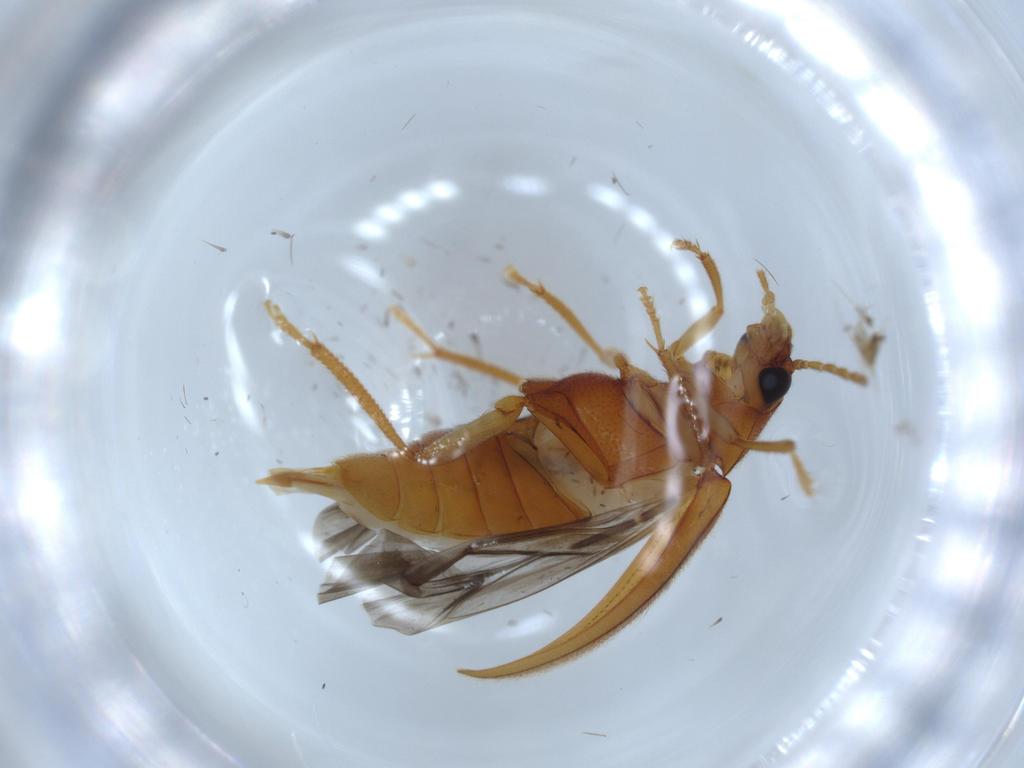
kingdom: Animalia
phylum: Arthropoda
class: Insecta
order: Coleoptera
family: Ptilodactylidae
